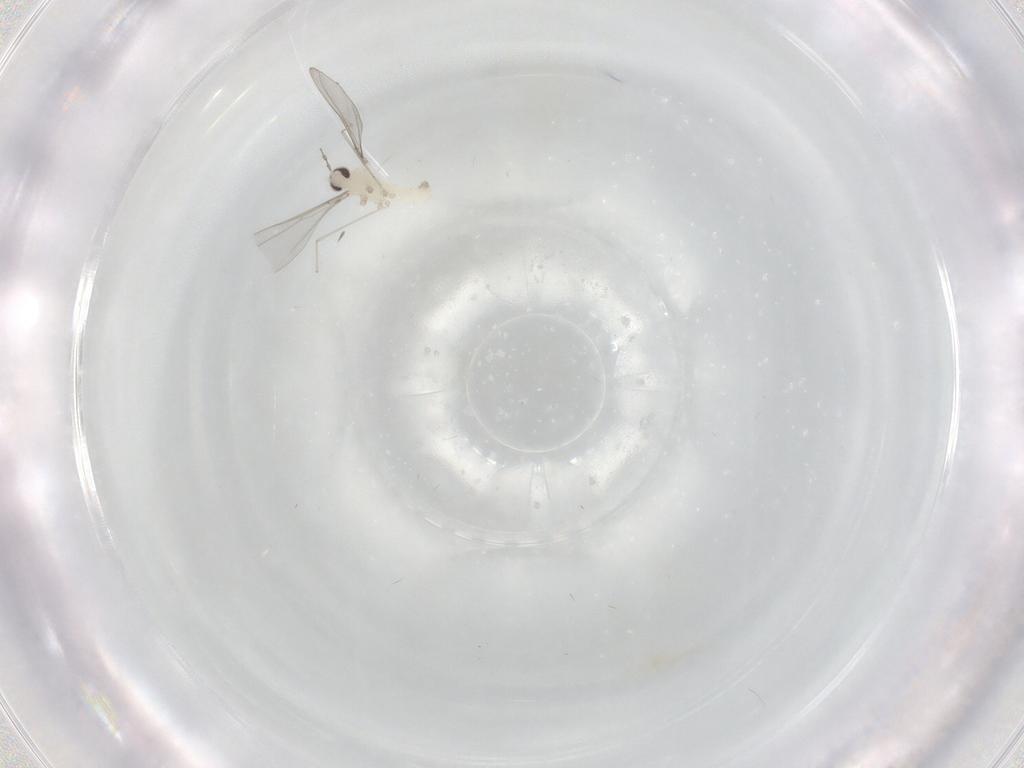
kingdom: Animalia
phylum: Arthropoda
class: Insecta
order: Diptera
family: Cecidomyiidae
